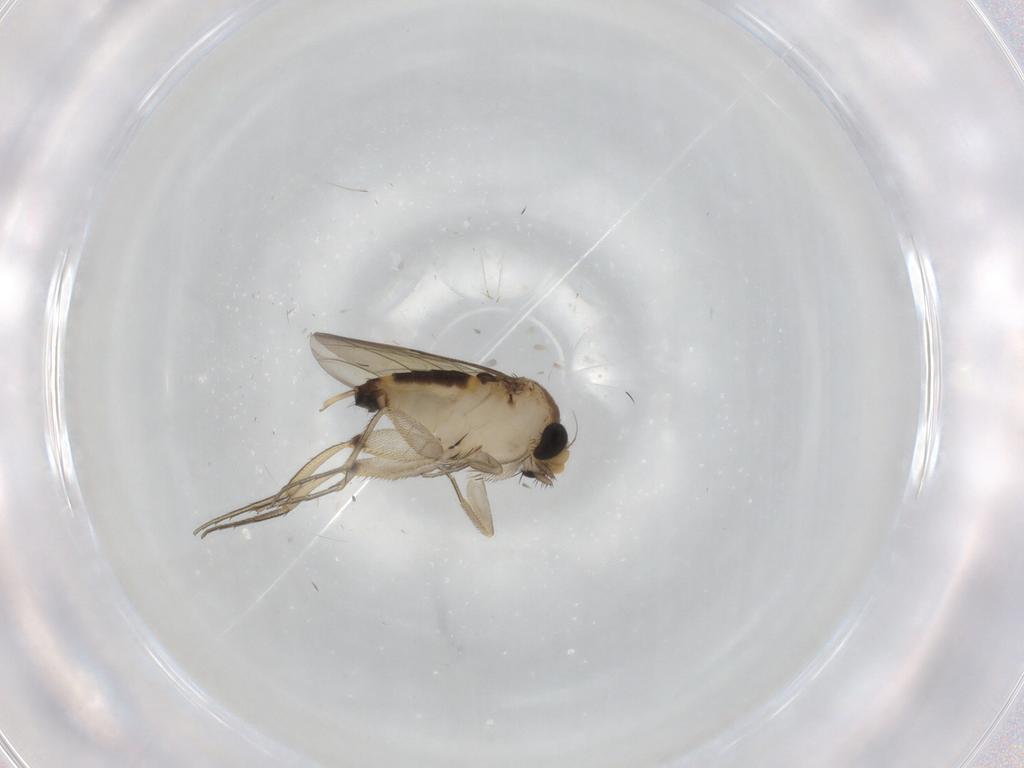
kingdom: Animalia
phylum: Arthropoda
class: Insecta
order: Diptera
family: Phoridae
